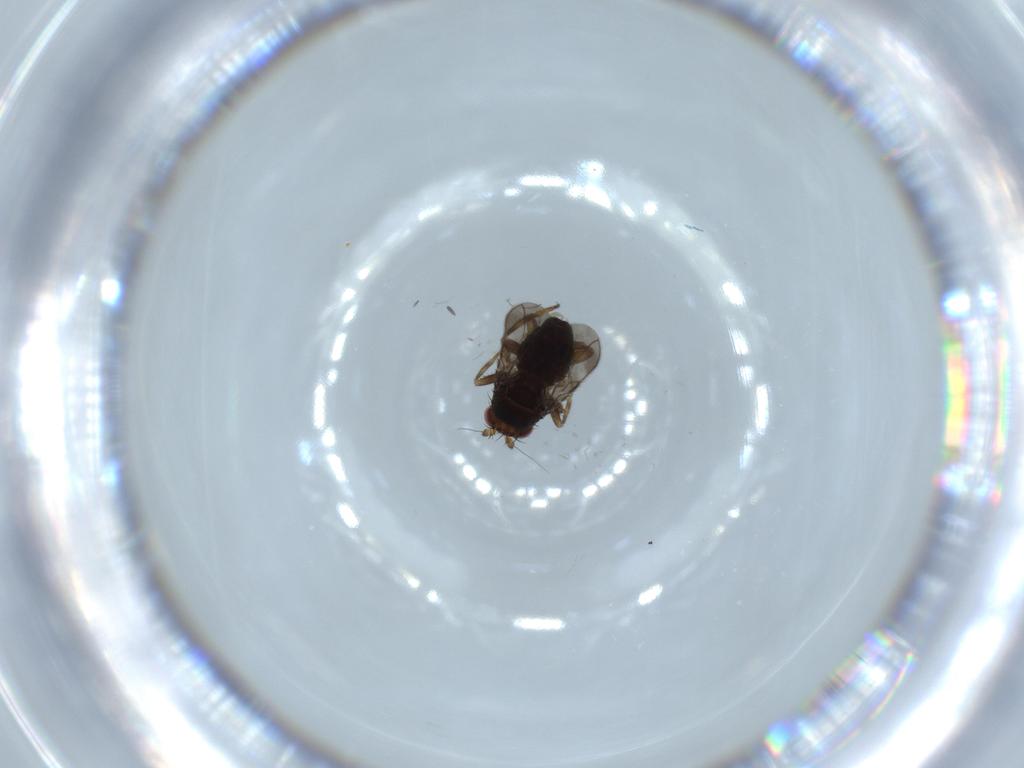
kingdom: Animalia
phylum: Arthropoda
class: Insecta
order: Diptera
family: Sphaeroceridae
